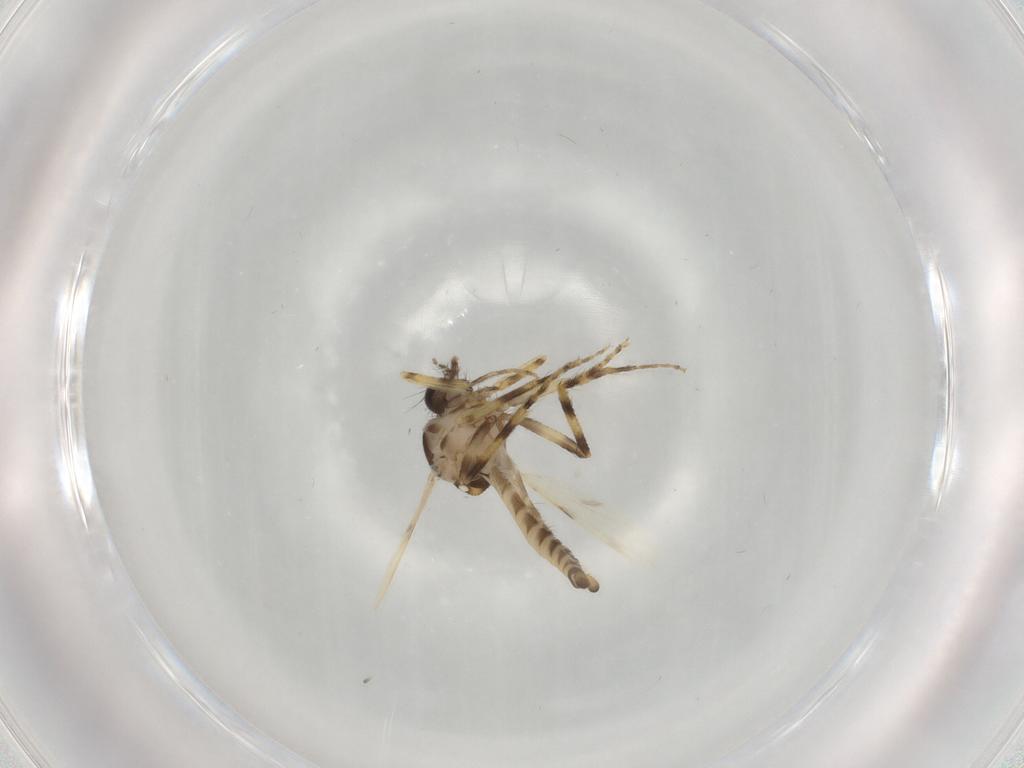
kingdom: Animalia
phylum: Arthropoda
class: Insecta
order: Diptera
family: Ceratopogonidae
